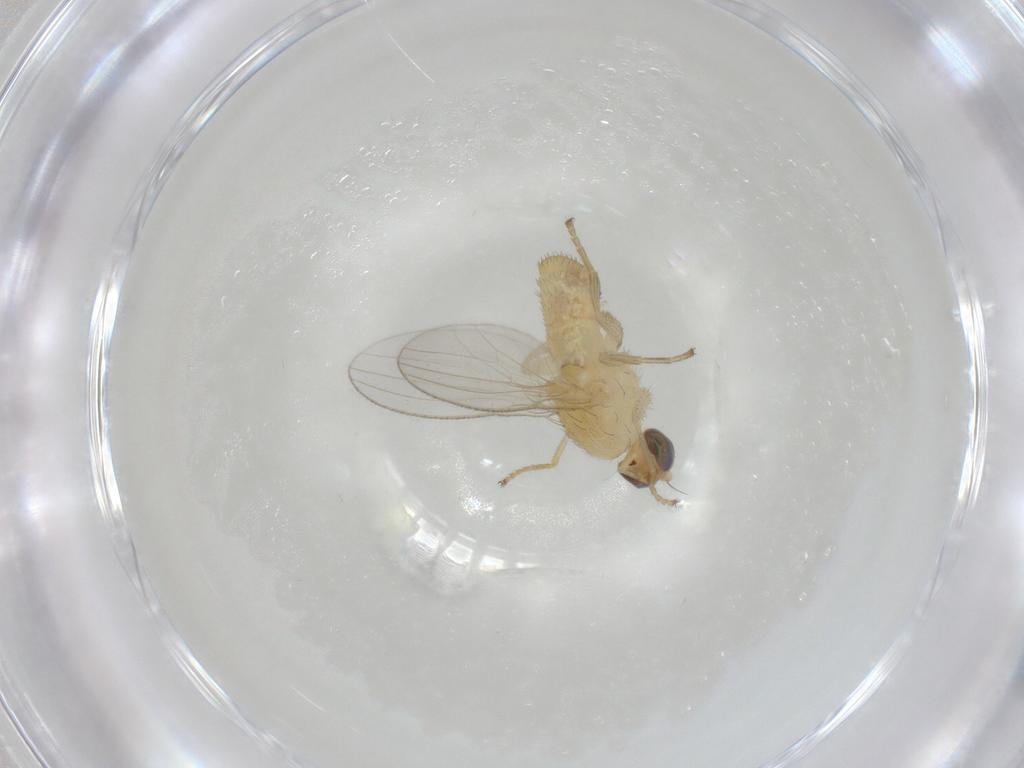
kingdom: Animalia
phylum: Arthropoda
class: Insecta
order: Diptera
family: Chyromyidae
